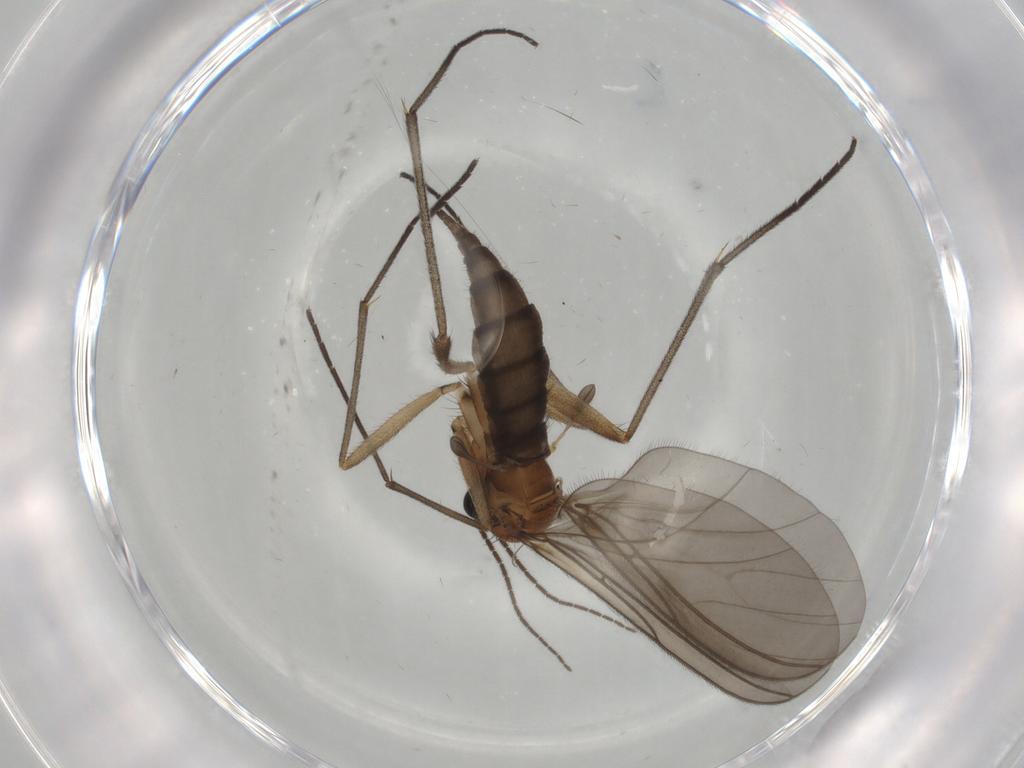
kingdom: Animalia
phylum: Arthropoda
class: Insecta
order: Diptera
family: Sciaridae
